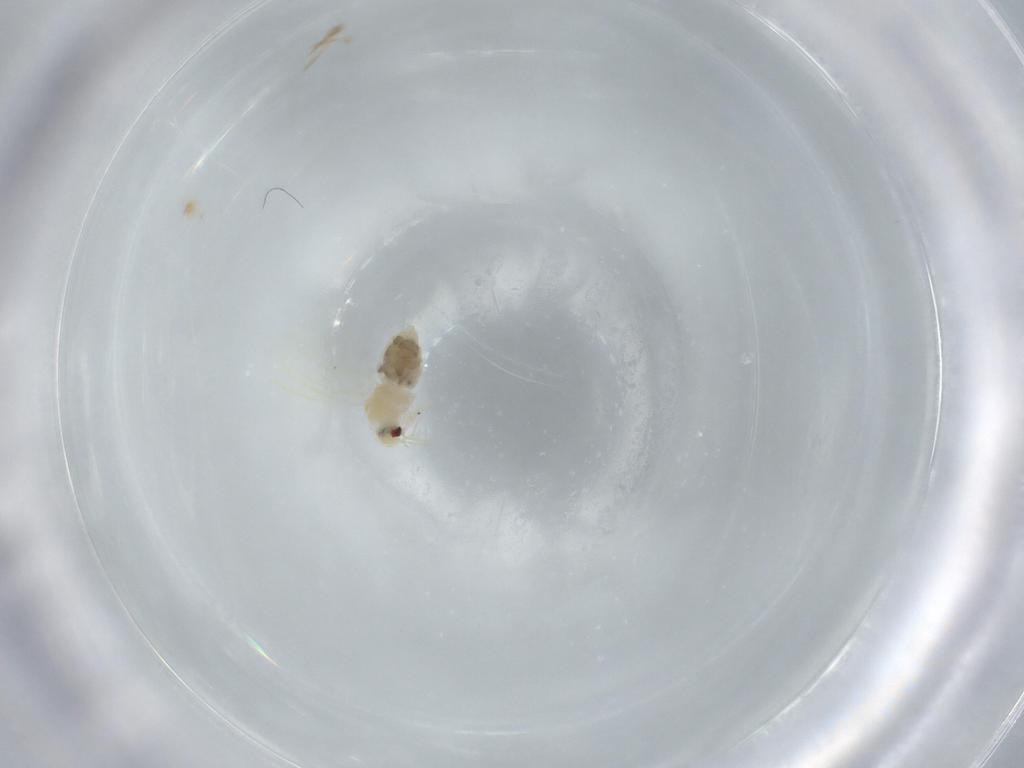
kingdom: Animalia
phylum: Arthropoda
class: Insecta
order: Hemiptera
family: Aleyrodidae
